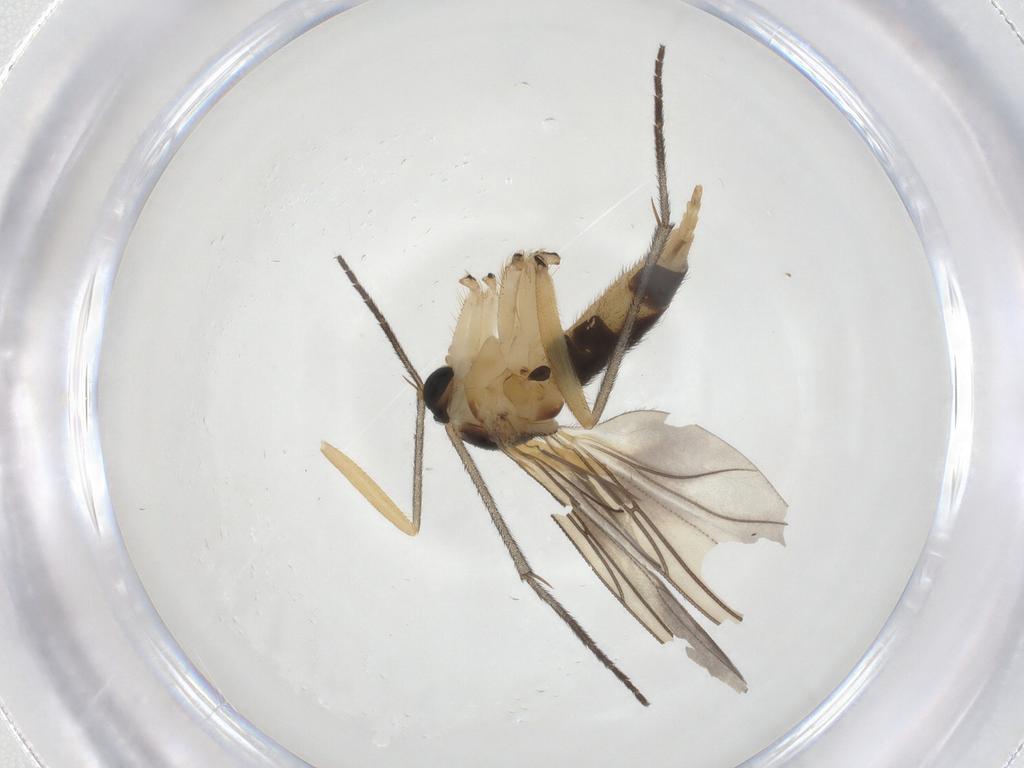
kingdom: Animalia
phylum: Arthropoda
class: Insecta
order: Diptera
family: Sciaridae
